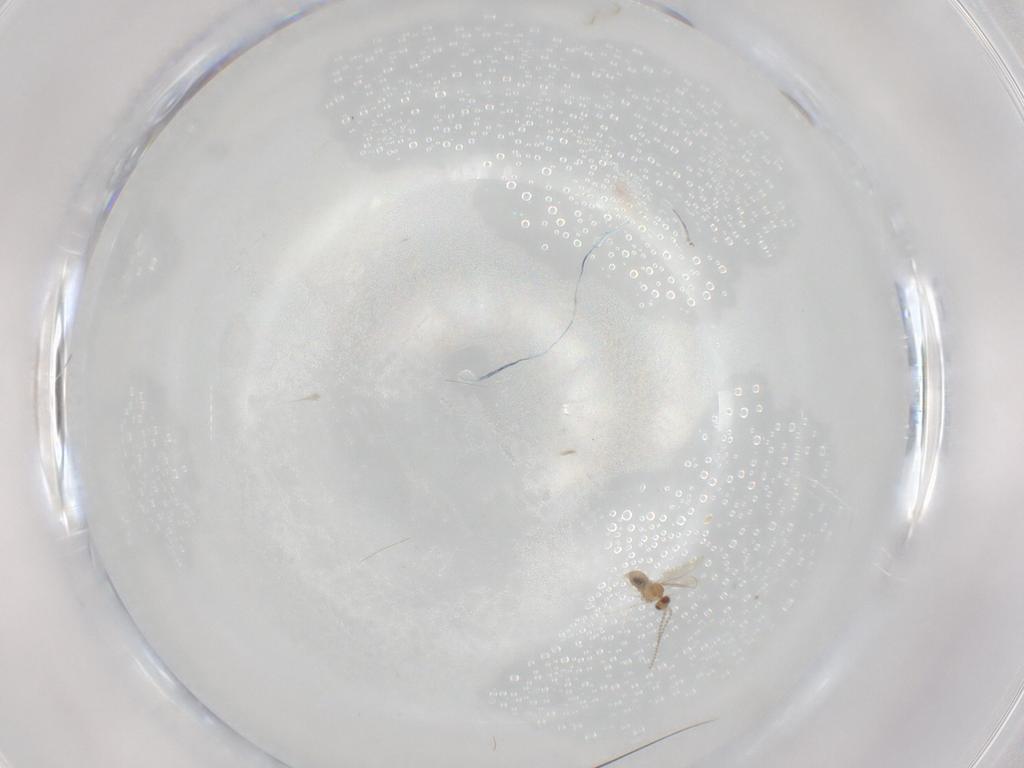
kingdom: Animalia
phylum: Arthropoda
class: Insecta
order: Diptera
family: Cecidomyiidae
